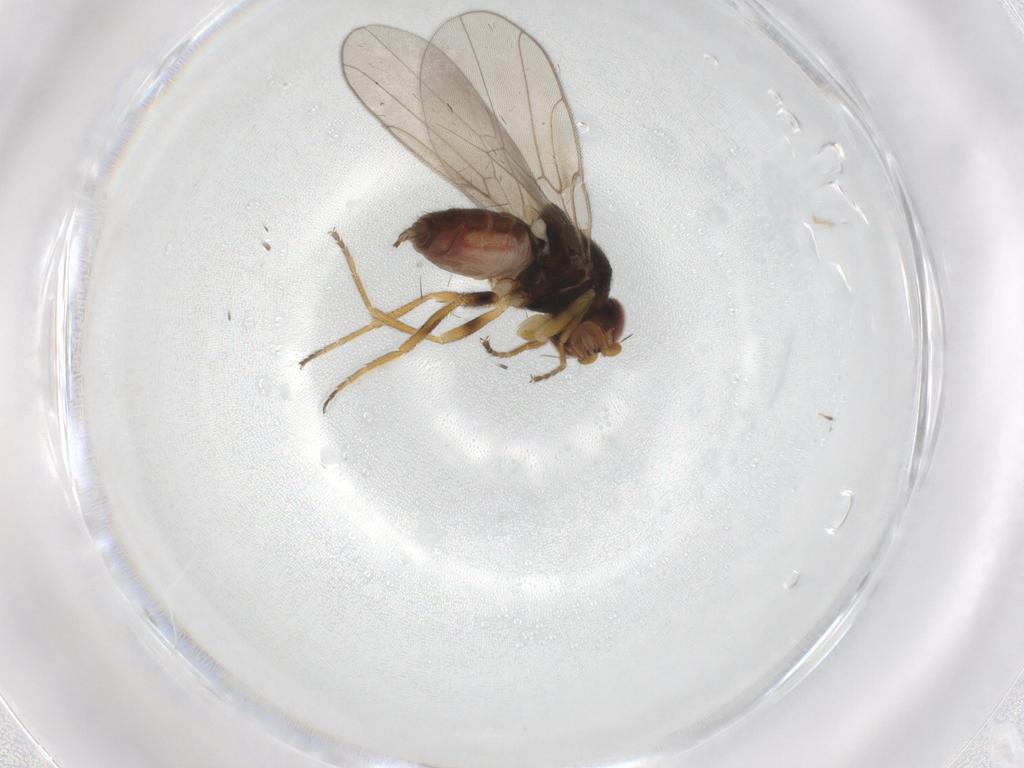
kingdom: Animalia
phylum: Arthropoda
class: Insecta
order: Diptera
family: Chloropidae
